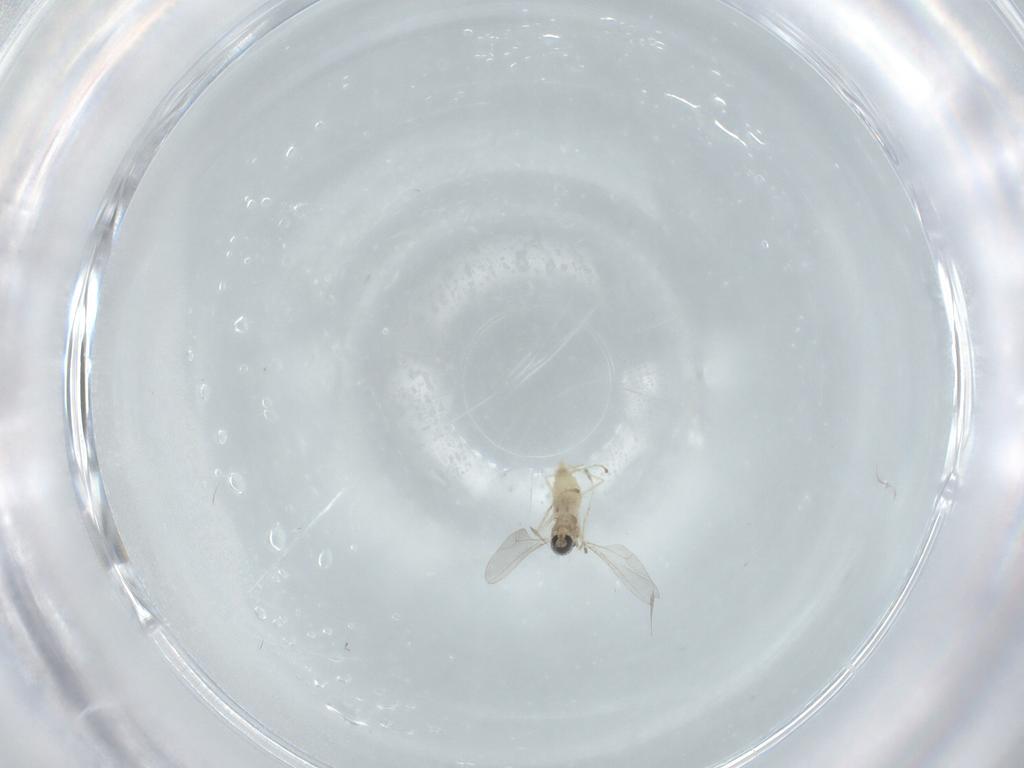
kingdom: Animalia
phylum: Arthropoda
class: Insecta
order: Diptera
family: Cecidomyiidae
